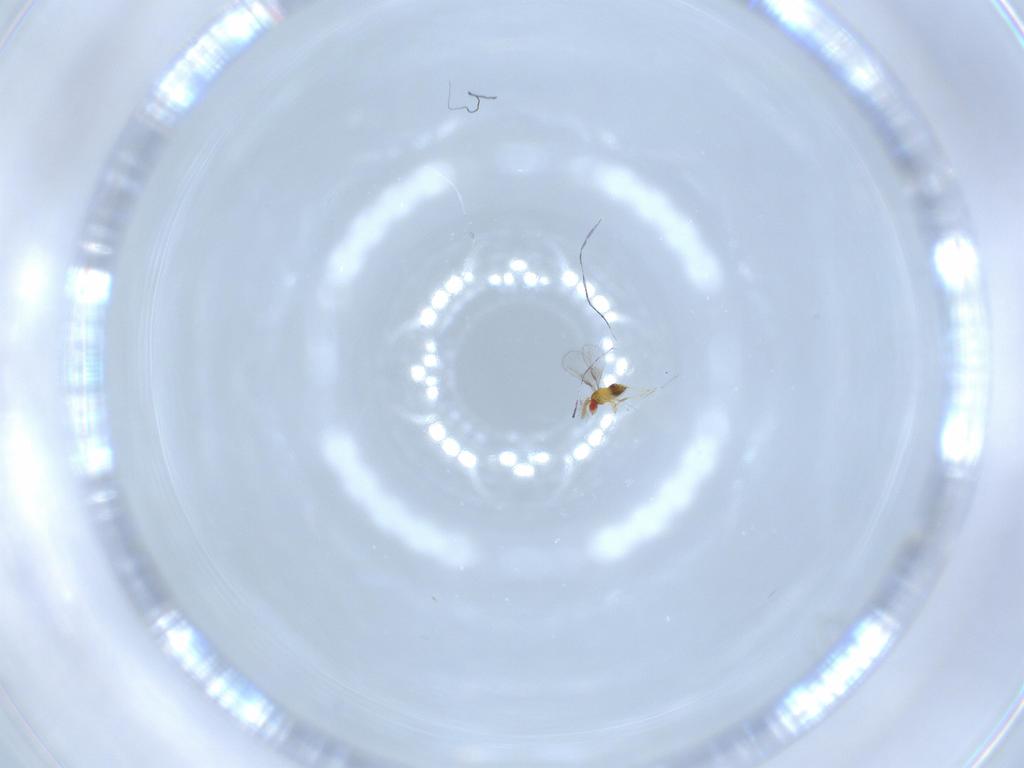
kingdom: Animalia
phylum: Arthropoda
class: Insecta
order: Hymenoptera
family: Trichogrammatidae
